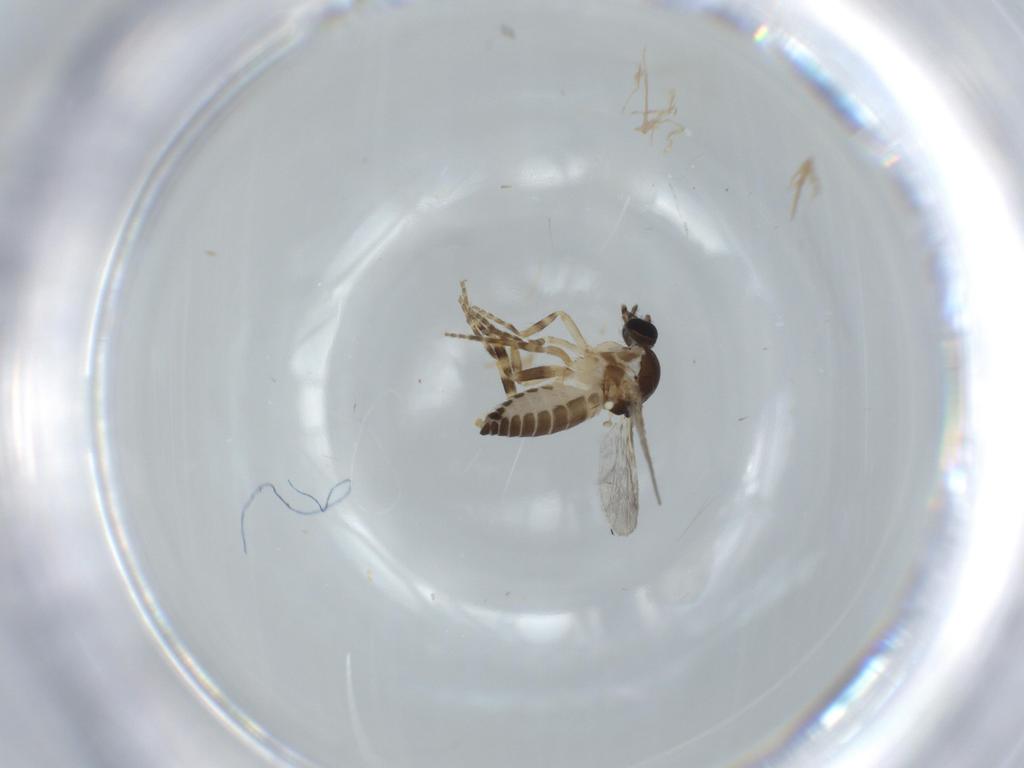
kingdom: Animalia
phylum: Arthropoda
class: Insecta
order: Diptera
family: Ceratopogonidae
